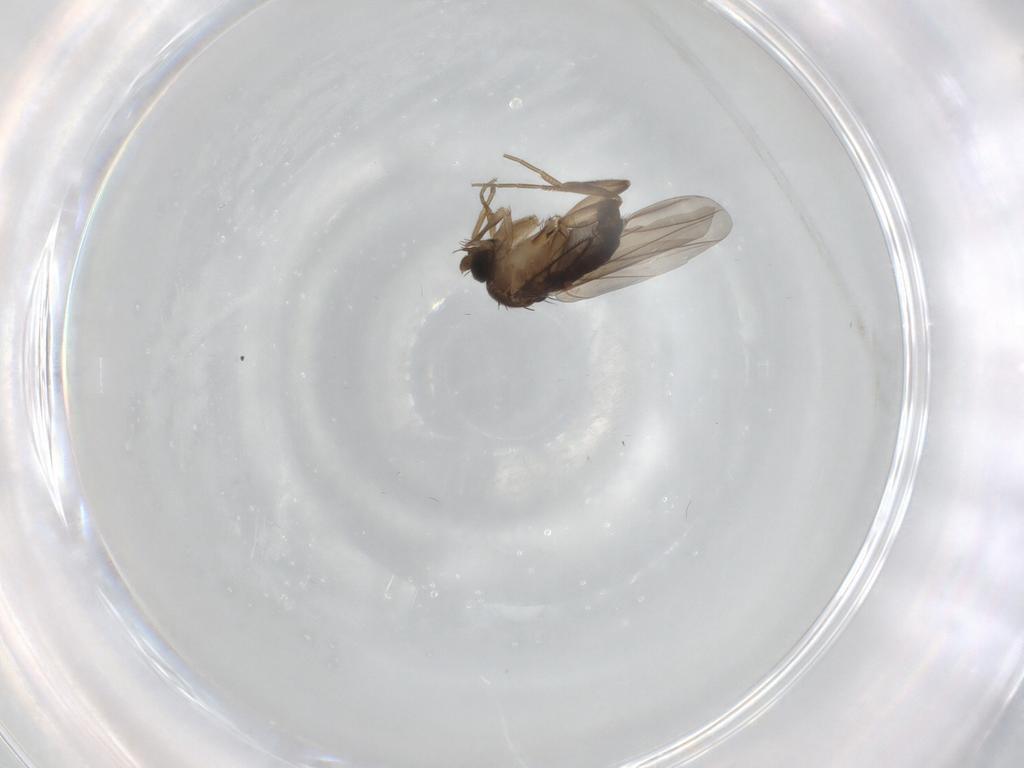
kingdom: Animalia
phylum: Arthropoda
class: Insecta
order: Diptera
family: Phoridae
